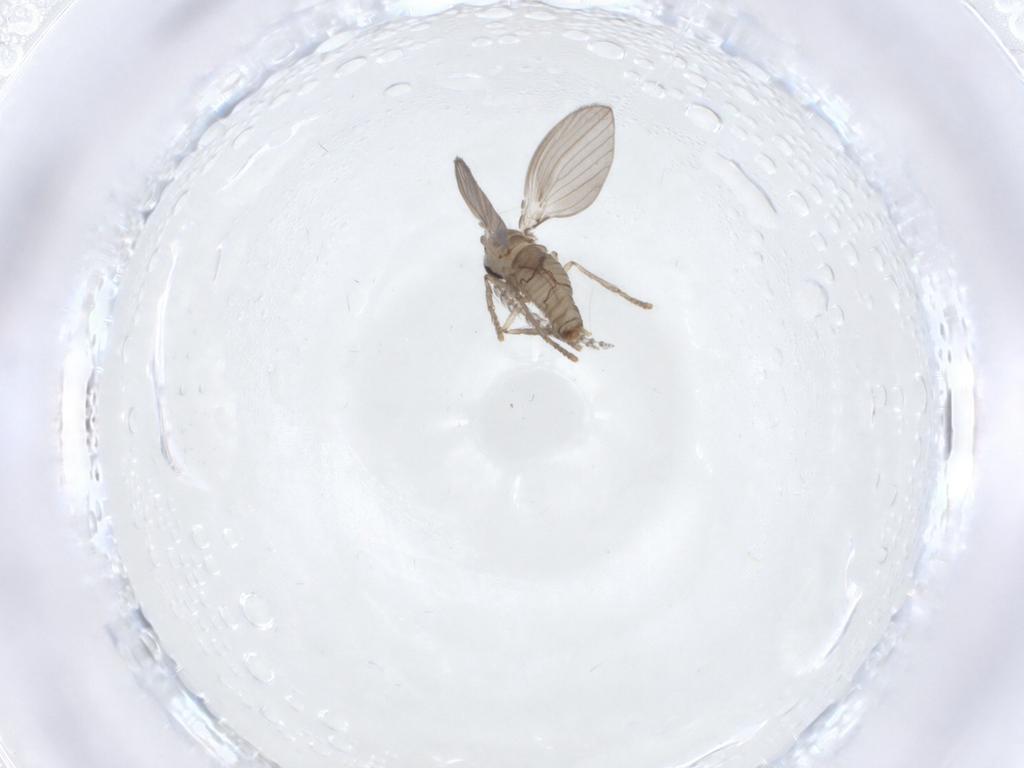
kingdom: Animalia
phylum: Arthropoda
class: Insecta
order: Diptera
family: Psychodidae
